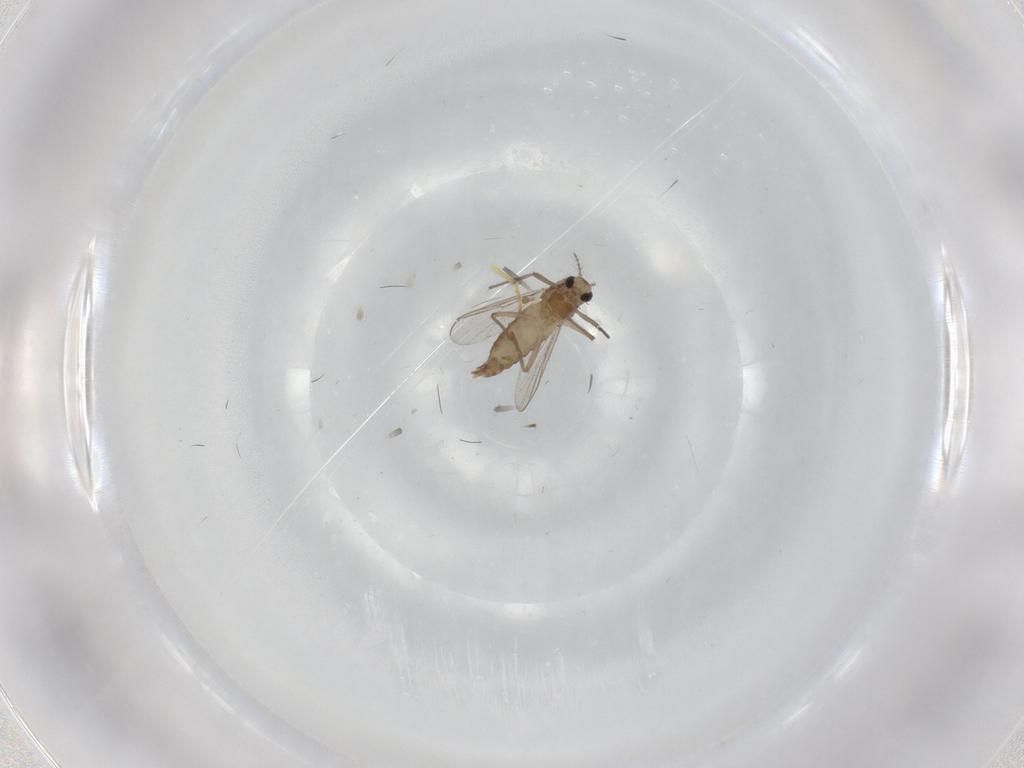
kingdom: Animalia
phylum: Arthropoda
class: Insecta
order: Diptera
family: Chironomidae
